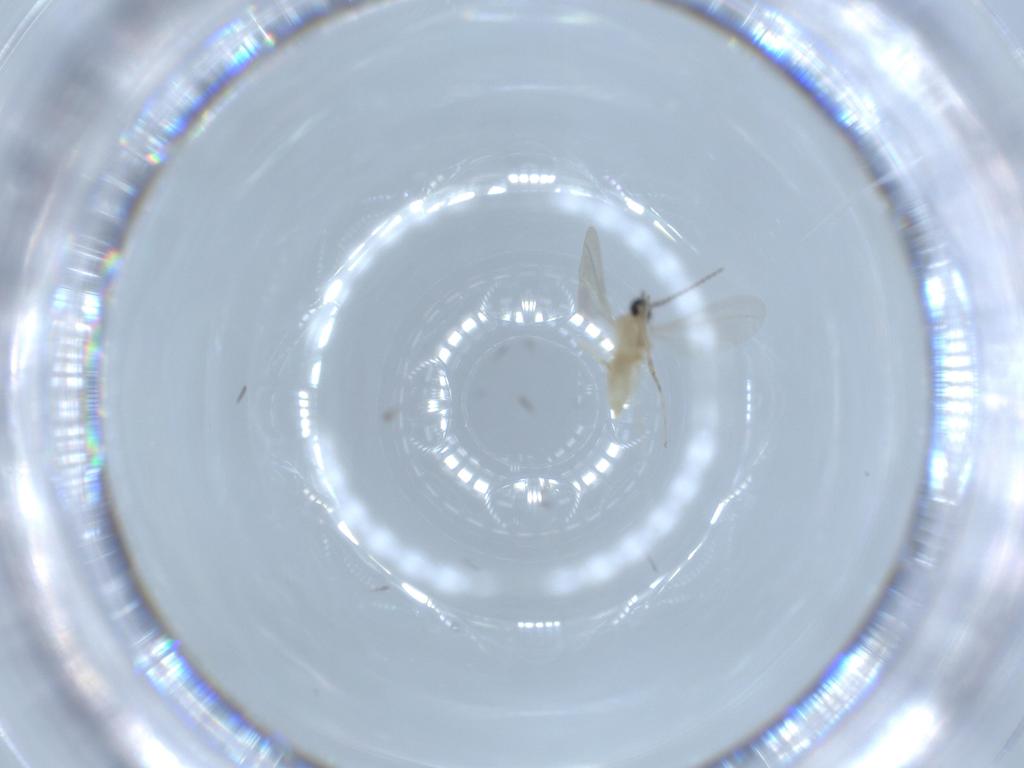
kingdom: Animalia
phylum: Arthropoda
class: Insecta
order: Diptera
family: Cecidomyiidae
